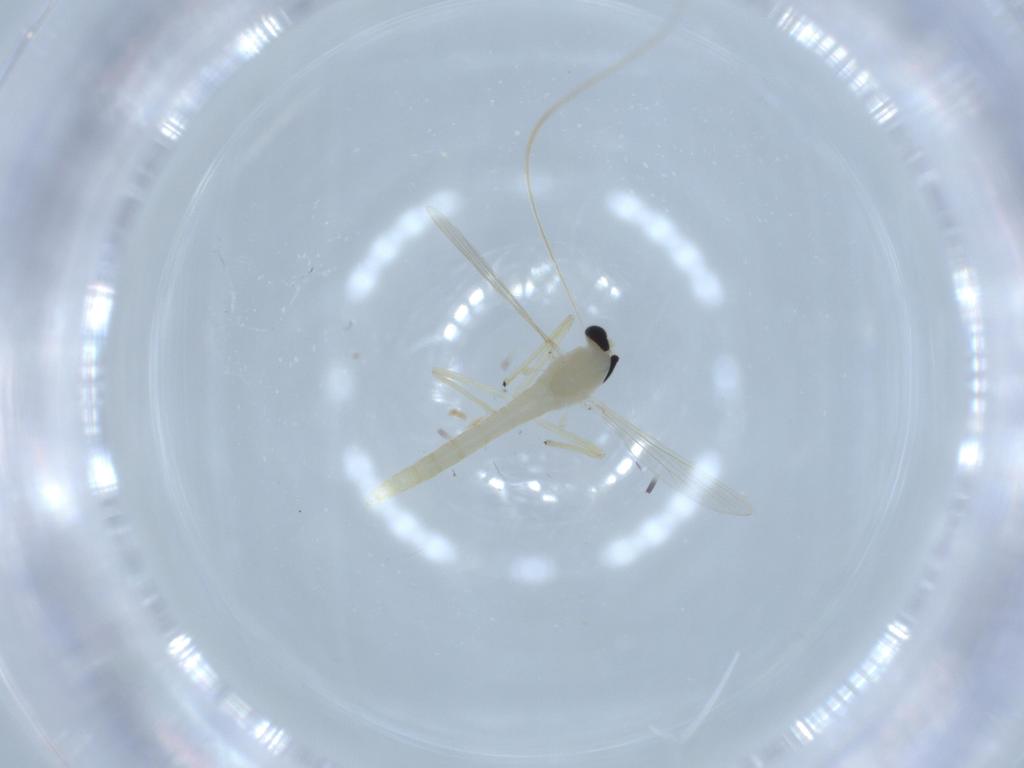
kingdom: Animalia
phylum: Arthropoda
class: Insecta
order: Diptera
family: Chironomidae
